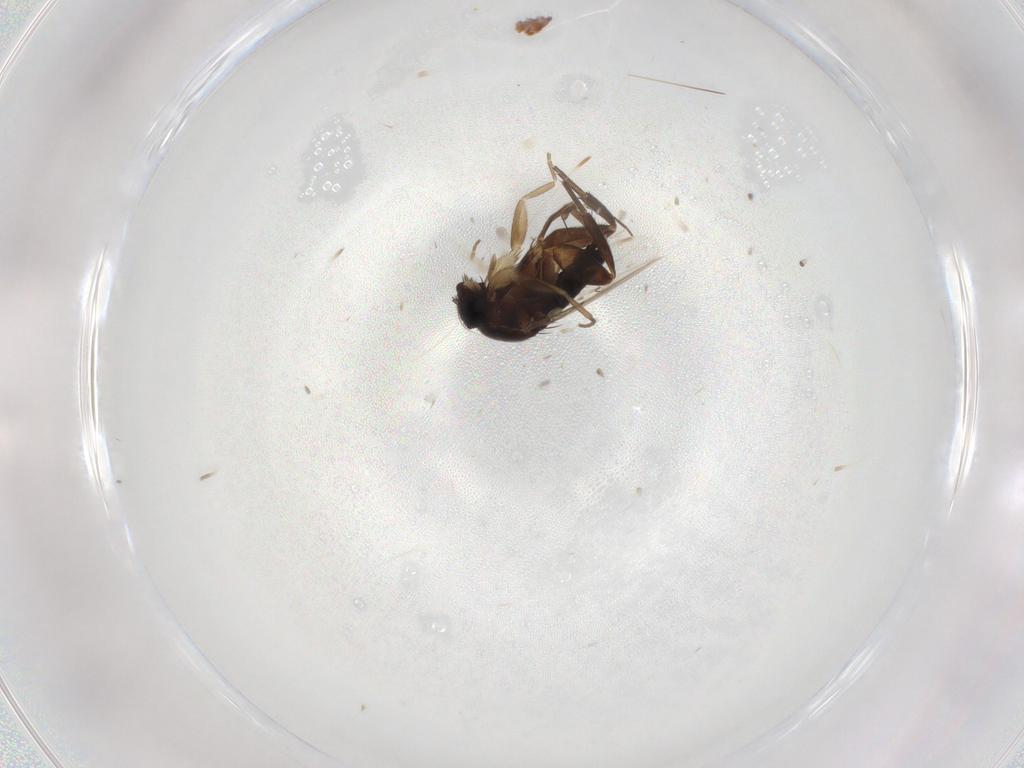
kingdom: Animalia
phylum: Arthropoda
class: Insecta
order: Diptera
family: Phoridae
